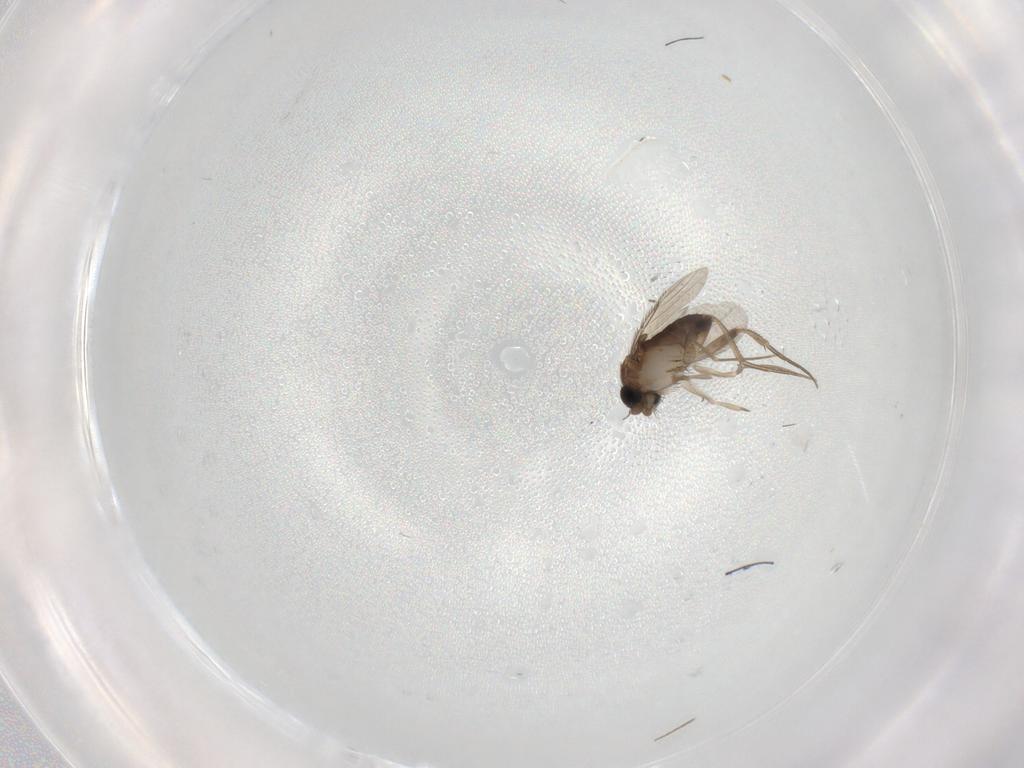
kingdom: Animalia
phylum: Arthropoda
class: Insecta
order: Diptera
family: Phoridae
